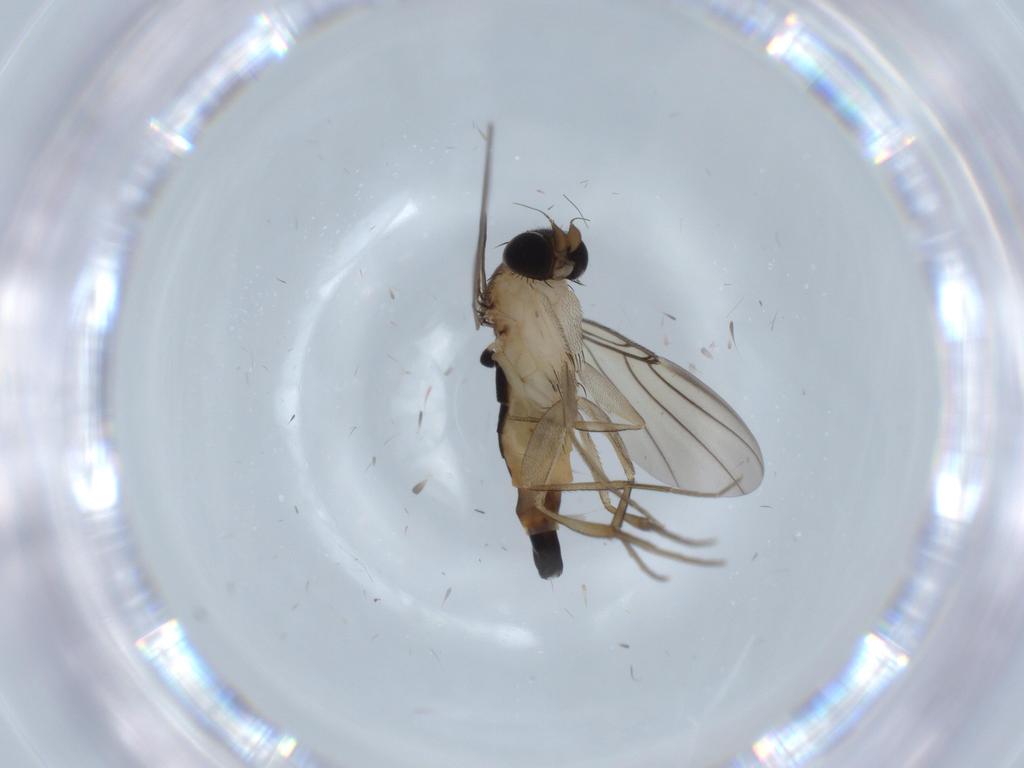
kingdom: Animalia
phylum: Arthropoda
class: Insecta
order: Diptera
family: Phoridae
